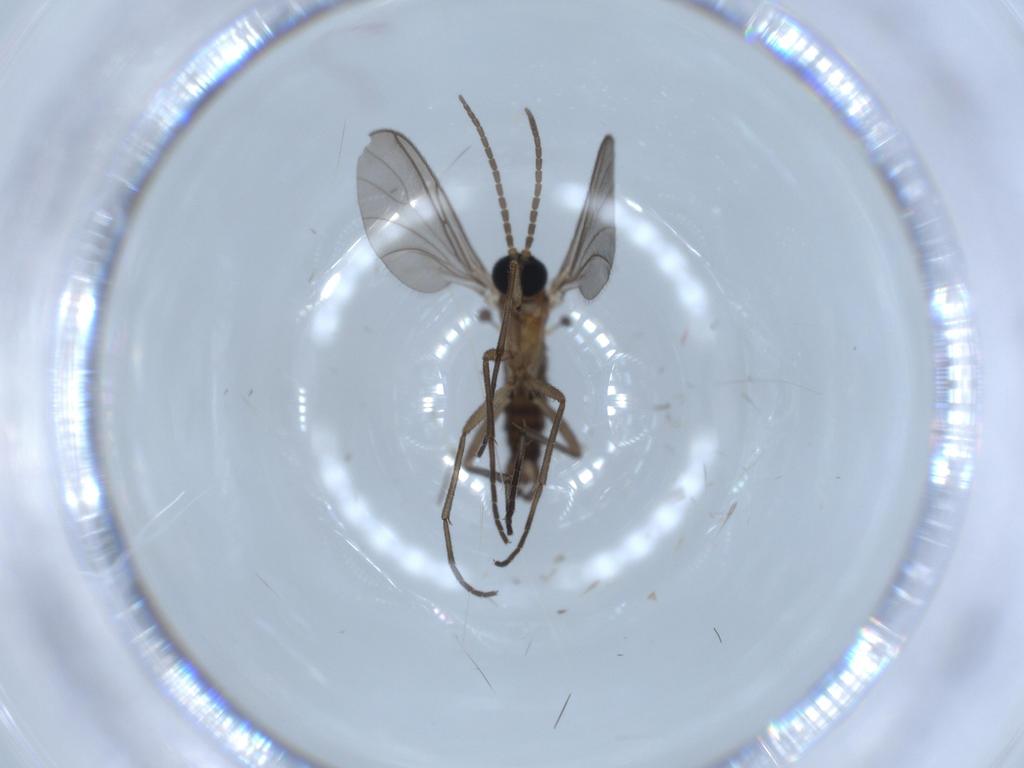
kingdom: Animalia
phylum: Arthropoda
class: Insecta
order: Diptera
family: Sciaridae
